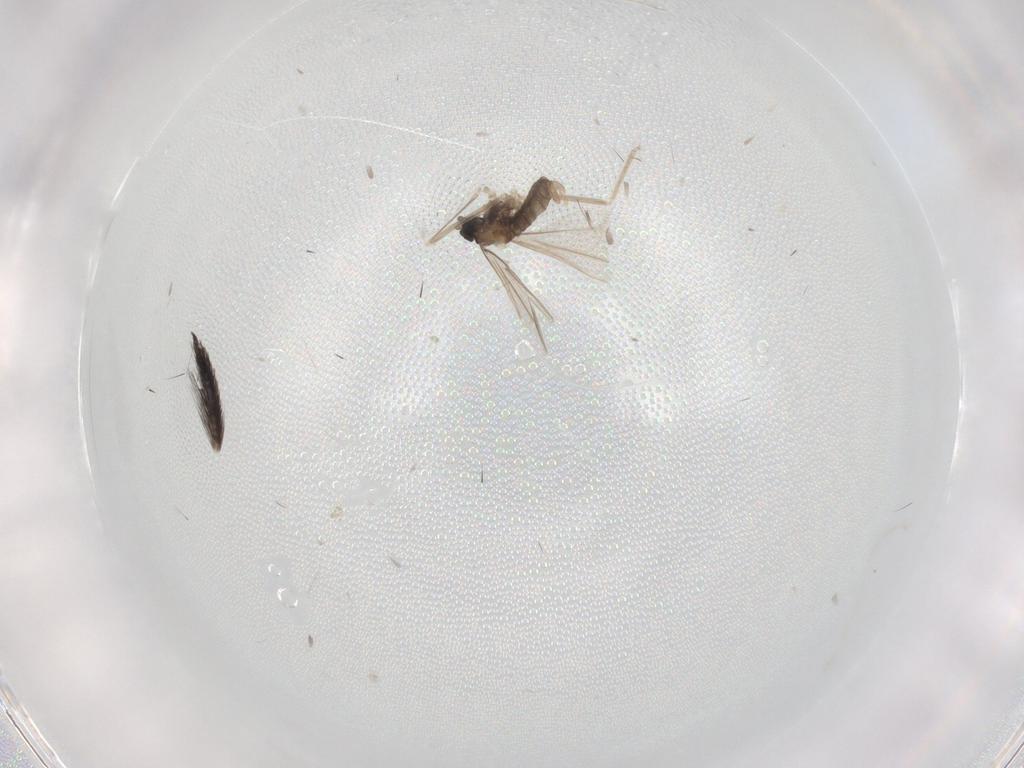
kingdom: Animalia
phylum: Arthropoda
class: Insecta
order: Diptera
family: Cecidomyiidae
